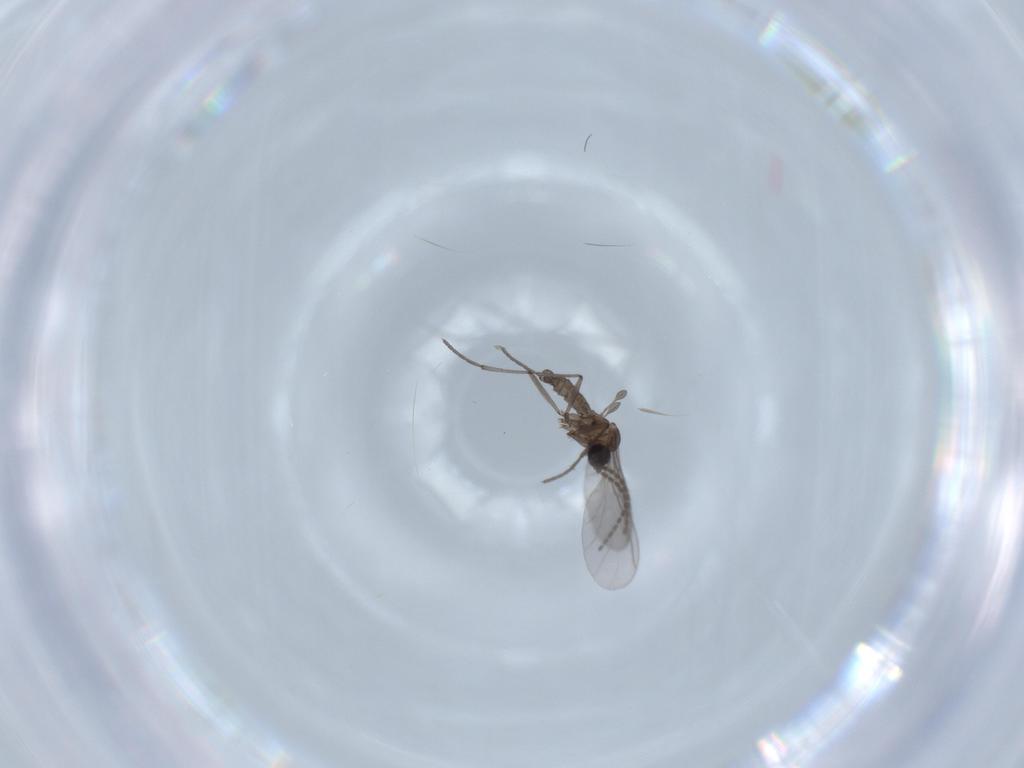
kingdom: Animalia
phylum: Arthropoda
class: Insecta
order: Diptera
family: Sciaridae
